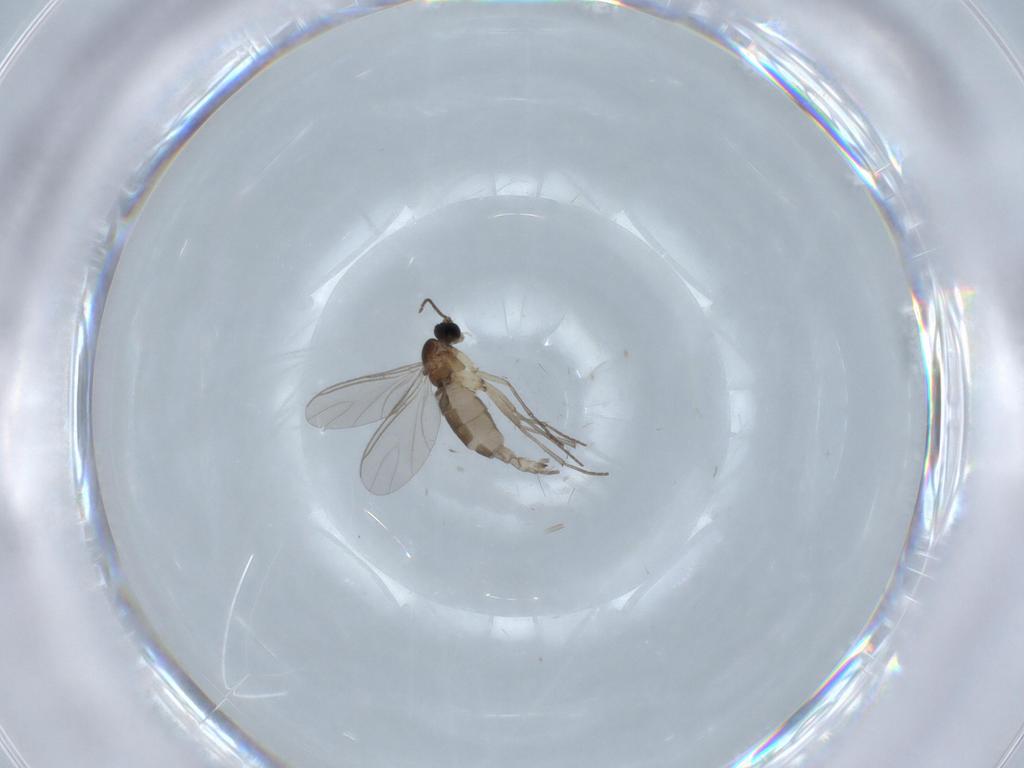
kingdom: Animalia
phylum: Arthropoda
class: Insecta
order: Diptera
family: Sciaridae
